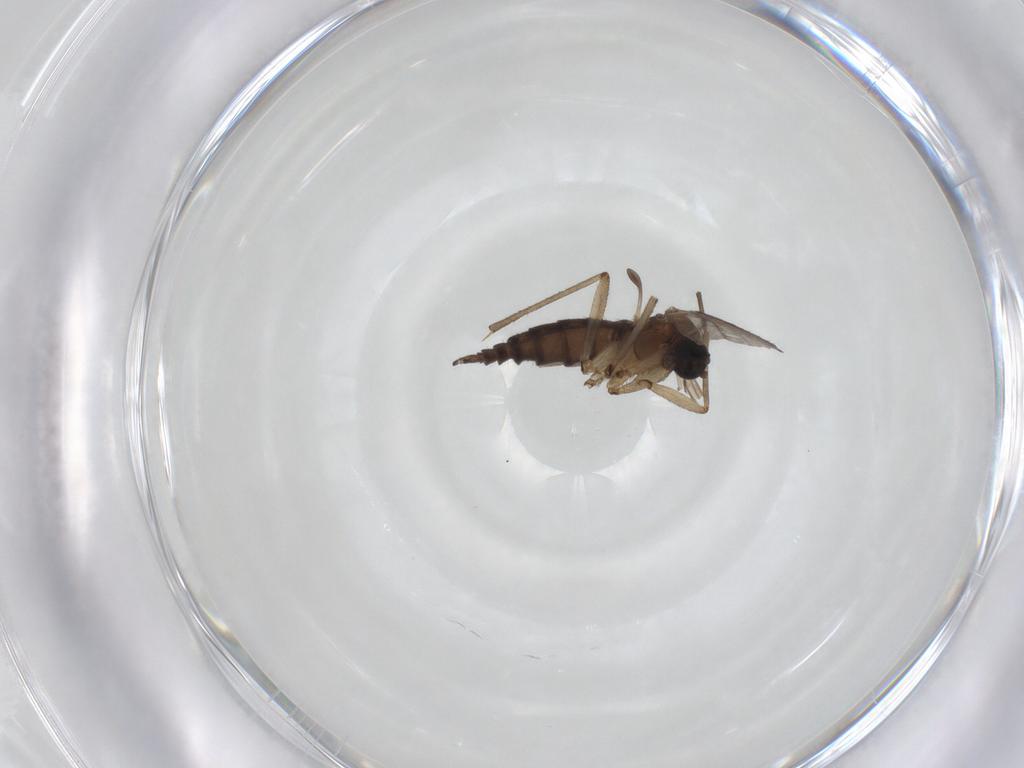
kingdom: Animalia
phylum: Arthropoda
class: Insecta
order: Diptera
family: Sciaridae
